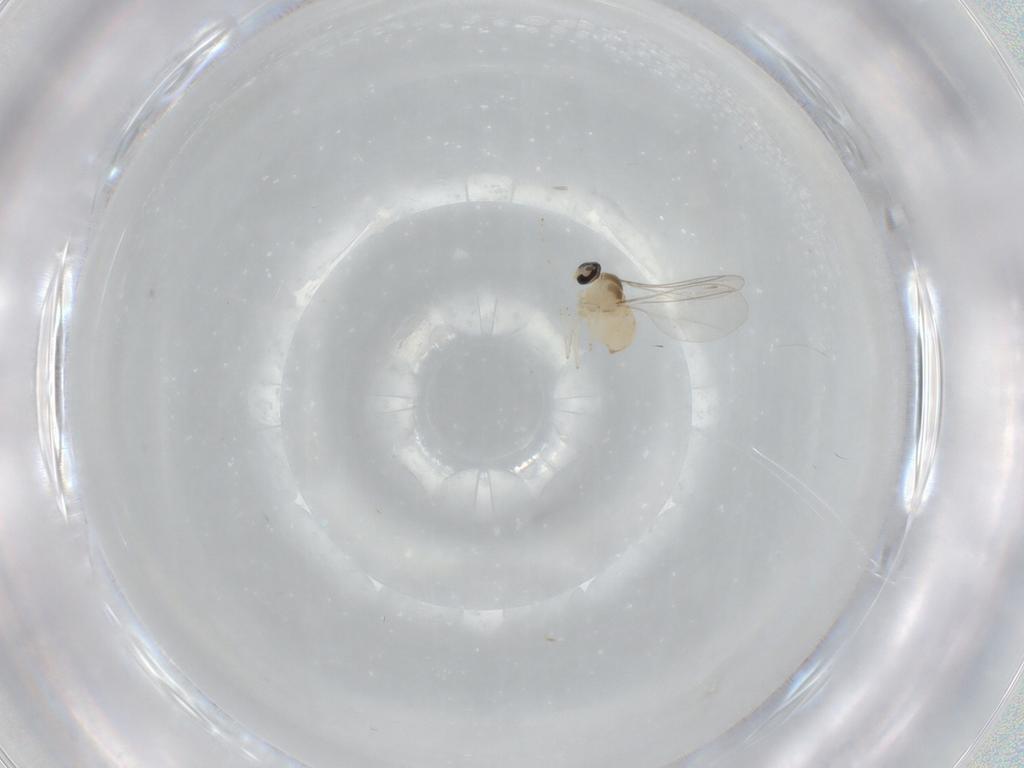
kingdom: Animalia
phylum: Arthropoda
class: Insecta
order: Diptera
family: Cecidomyiidae
